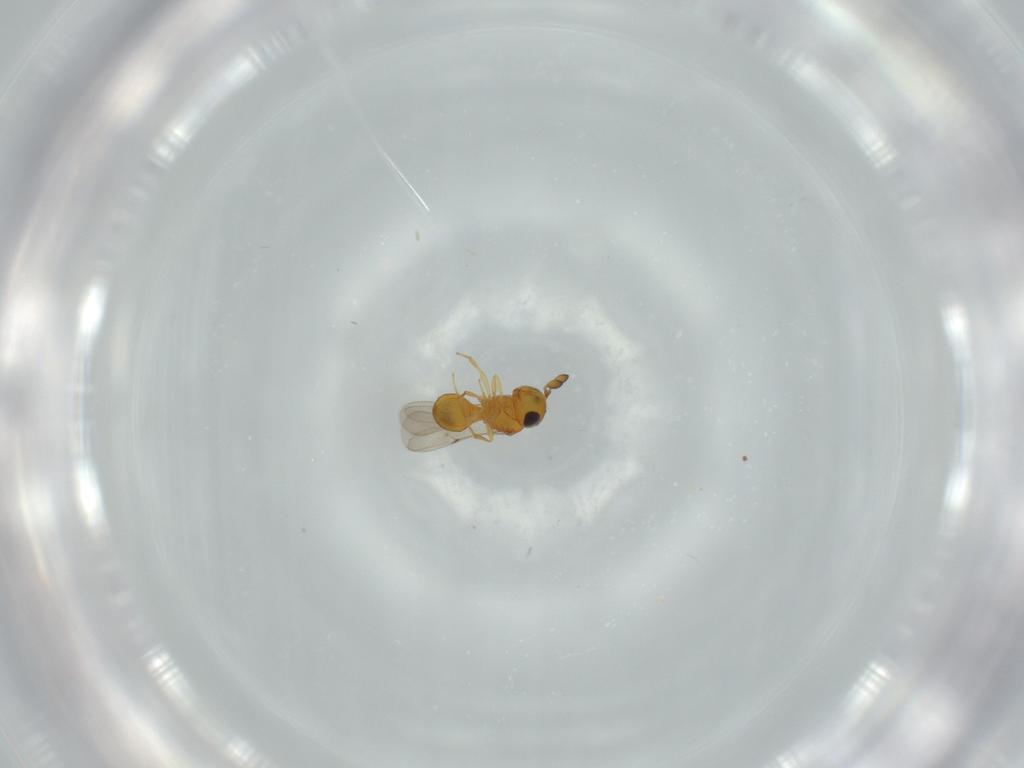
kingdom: Animalia
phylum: Arthropoda
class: Insecta
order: Hymenoptera
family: Scelionidae
